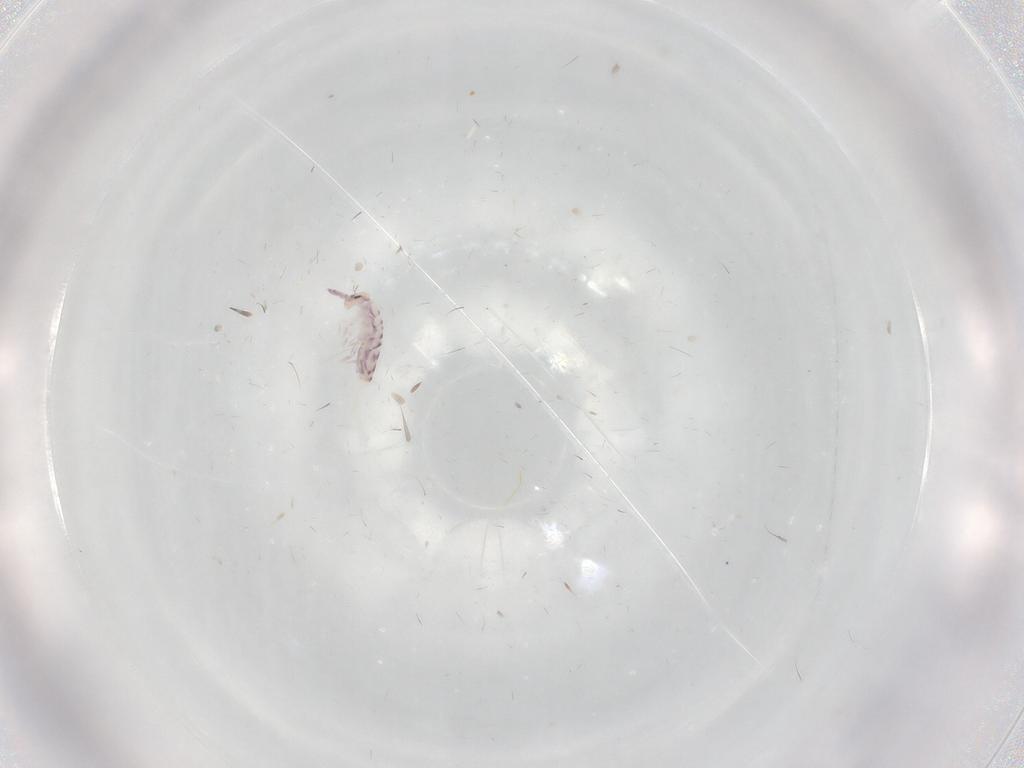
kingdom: Animalia
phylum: Arthropoda
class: Collembola
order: Entomobryomorpha
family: Entomobryidae
